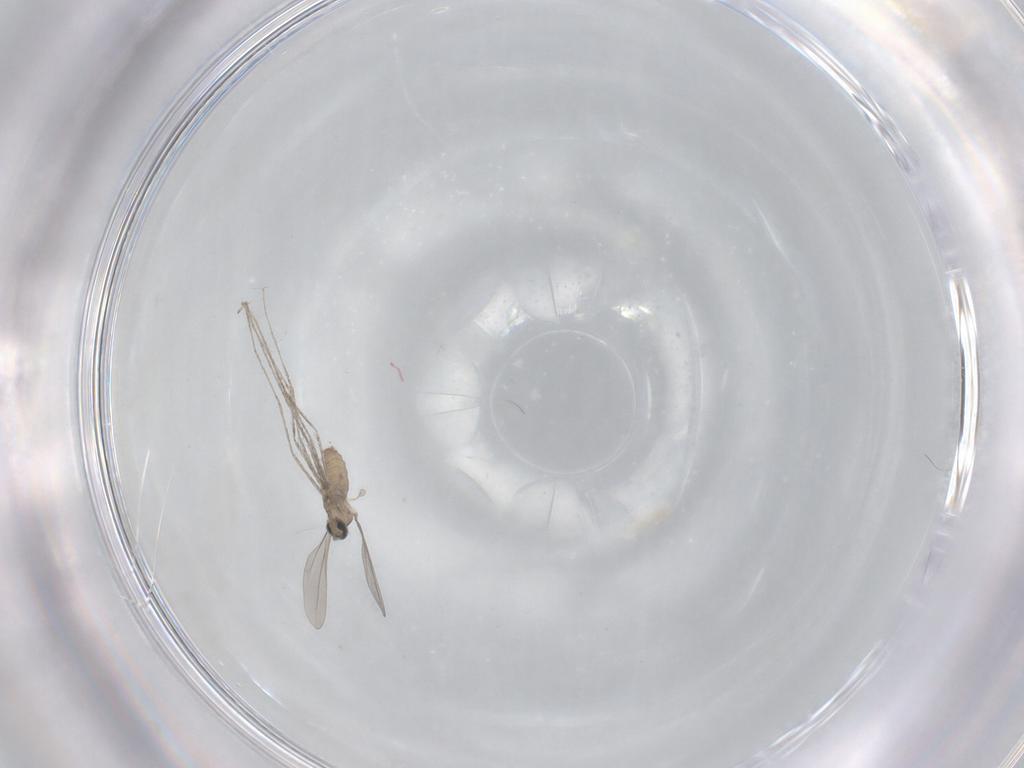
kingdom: Animalia
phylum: Arthropoda
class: Insecta
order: Diptera
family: Cecidomyiidae
